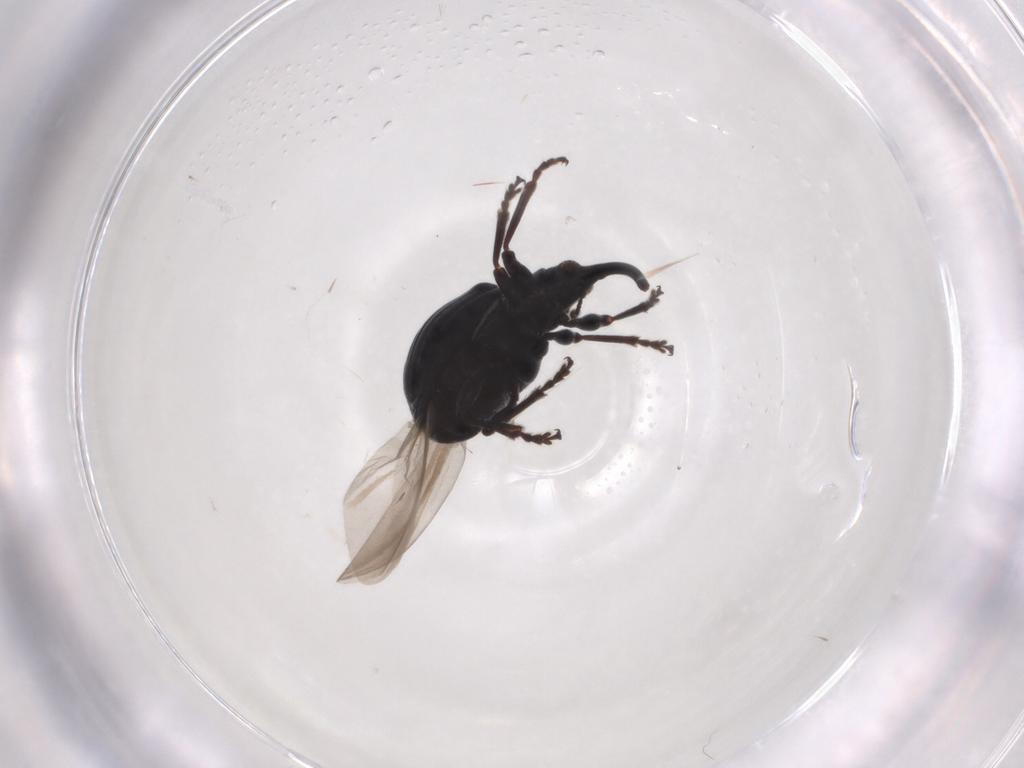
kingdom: Animalia
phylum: Arthropoda
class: Insecta
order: Coleoptera
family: Brentidae
